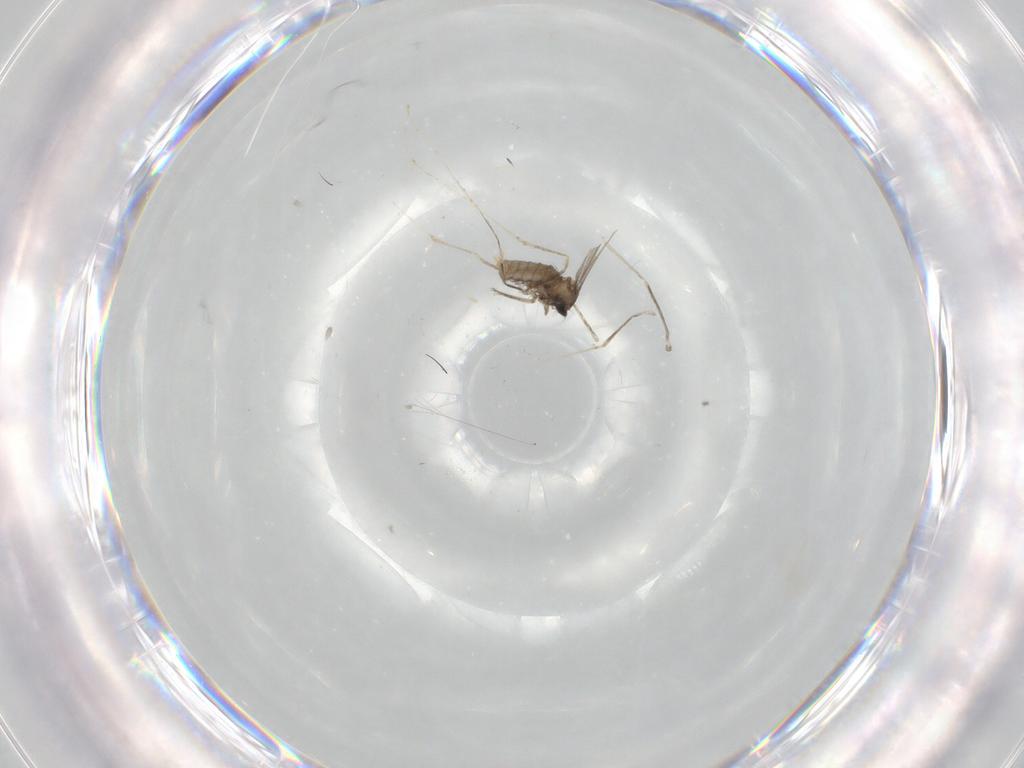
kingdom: Animalia
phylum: Arthropoda
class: Insecta
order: Diptera
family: Cecidomyiidae
